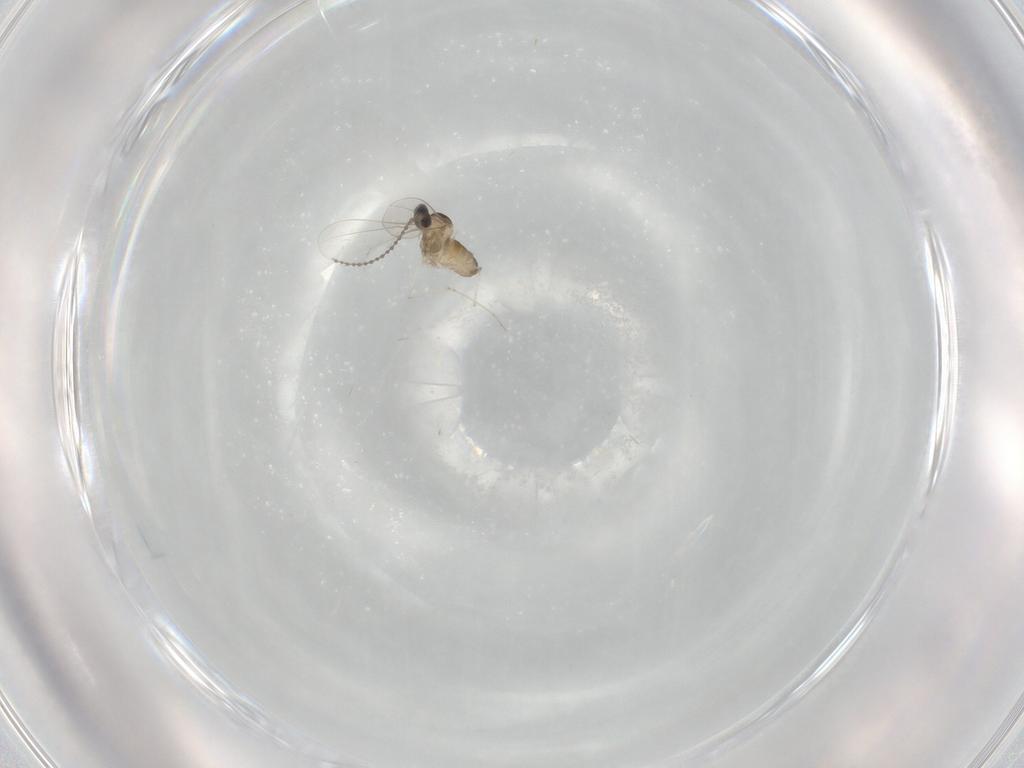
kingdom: Animalia
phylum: Arthropoda
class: Insecta
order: Diptera
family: Cecidomyiidae
